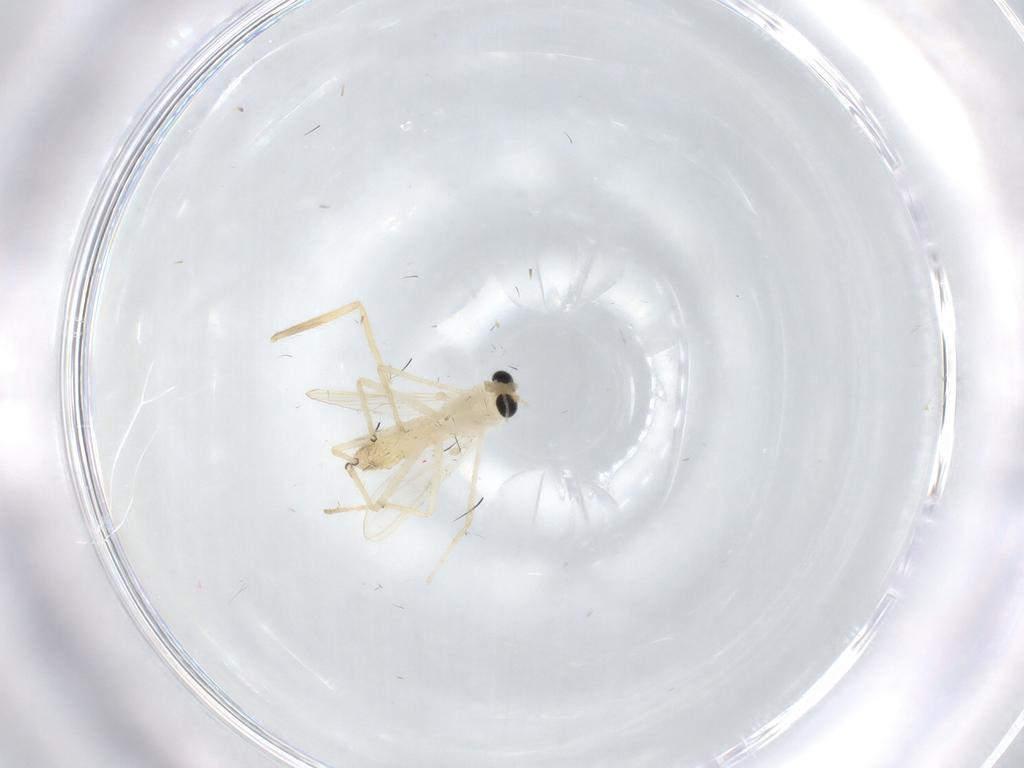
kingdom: Animalia
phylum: Arthropoda
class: Insecta
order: Diptera
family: Chironomidae
